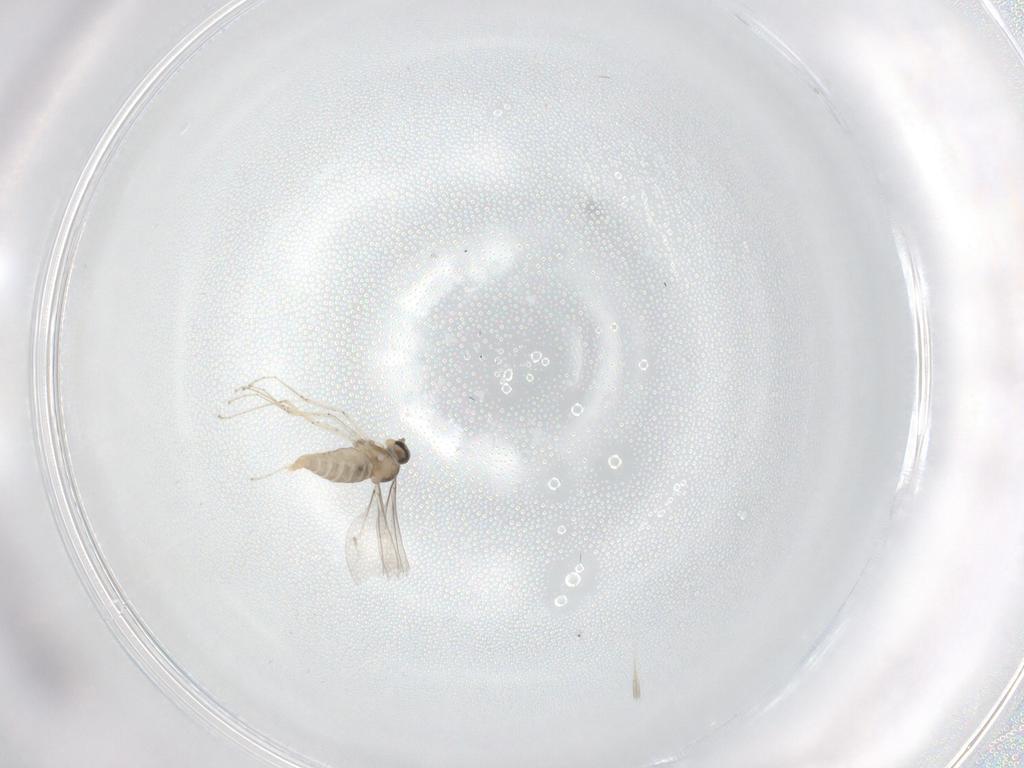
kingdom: Animalia
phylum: Arthropoda
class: Insecta
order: Diptera
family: Cecidomyiidae
